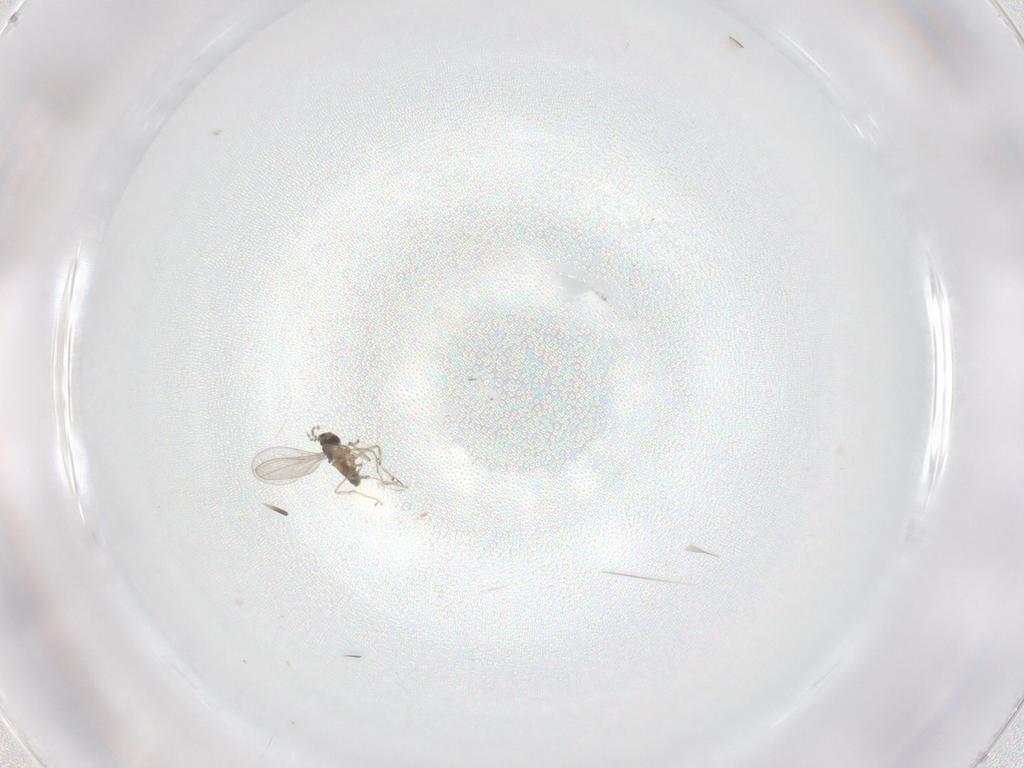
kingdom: Animalia
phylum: Arthropoda
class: Insecta
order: Diptera
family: Cecidomyiidae
